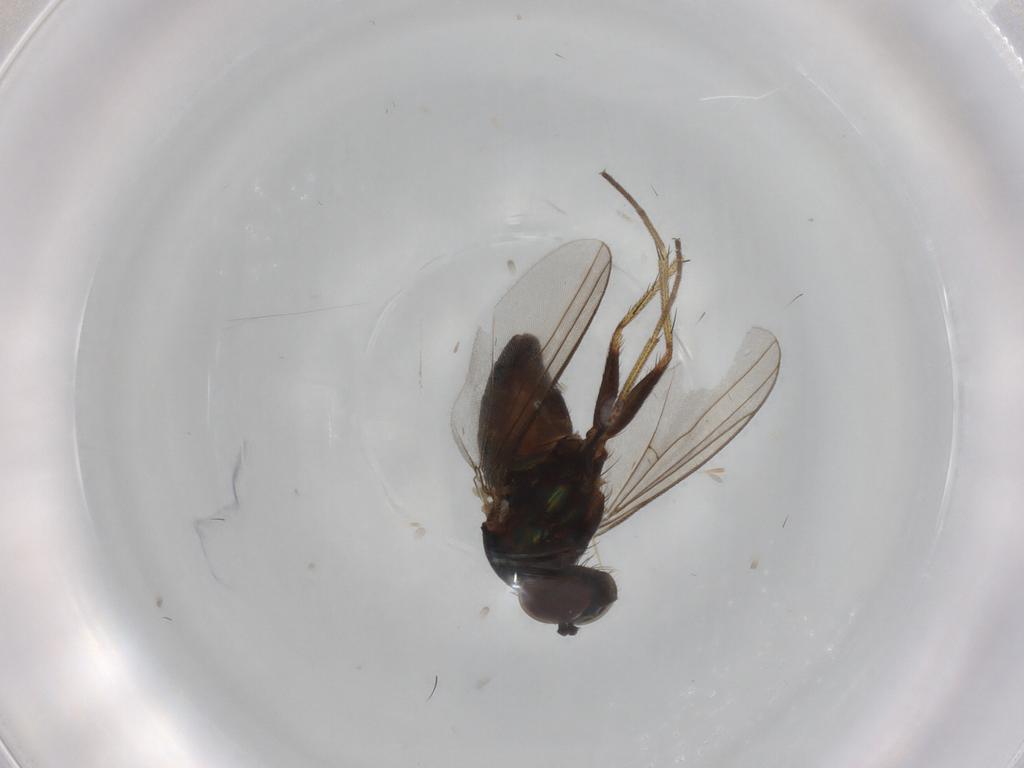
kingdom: Animalia
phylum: Arthropoda
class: Insecta
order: Diptera
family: Dolichopodidae
